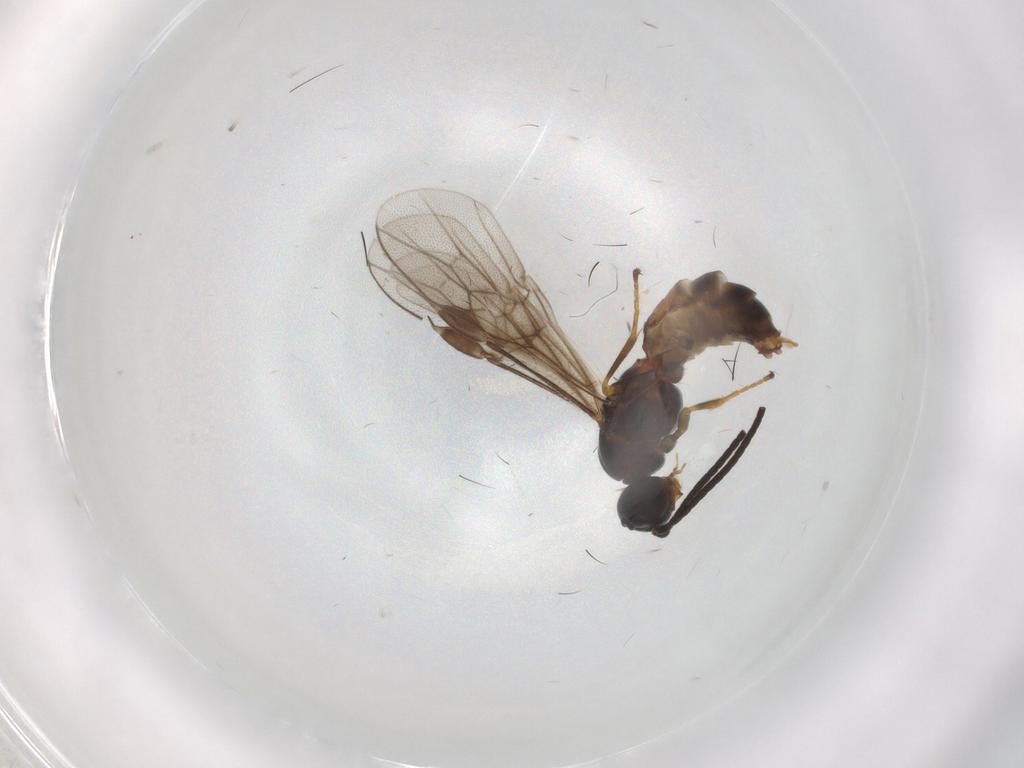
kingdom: Animalia
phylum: Arthropoda
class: Insecta
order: Hymenoptera
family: Braconidae
